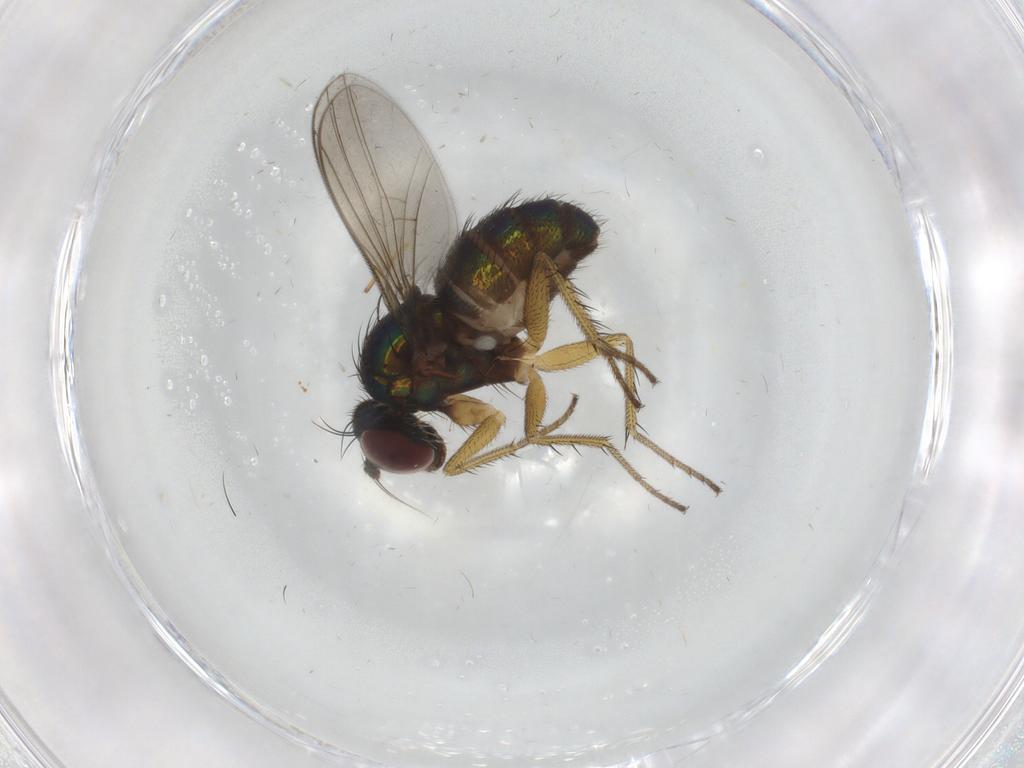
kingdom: Animalia
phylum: Arthropoda
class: Insecta
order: Diptera
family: Dolichopodidae
